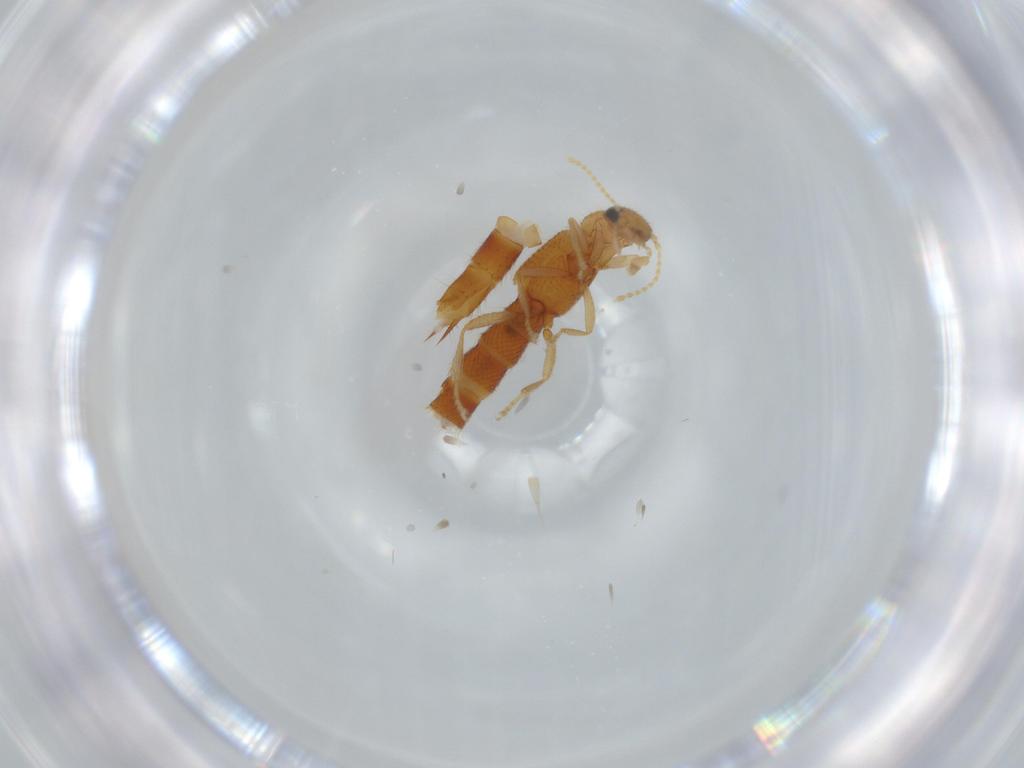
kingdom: Animalia
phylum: Arthropoda
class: Insecta
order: Coleoptera
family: Staphylinidae
